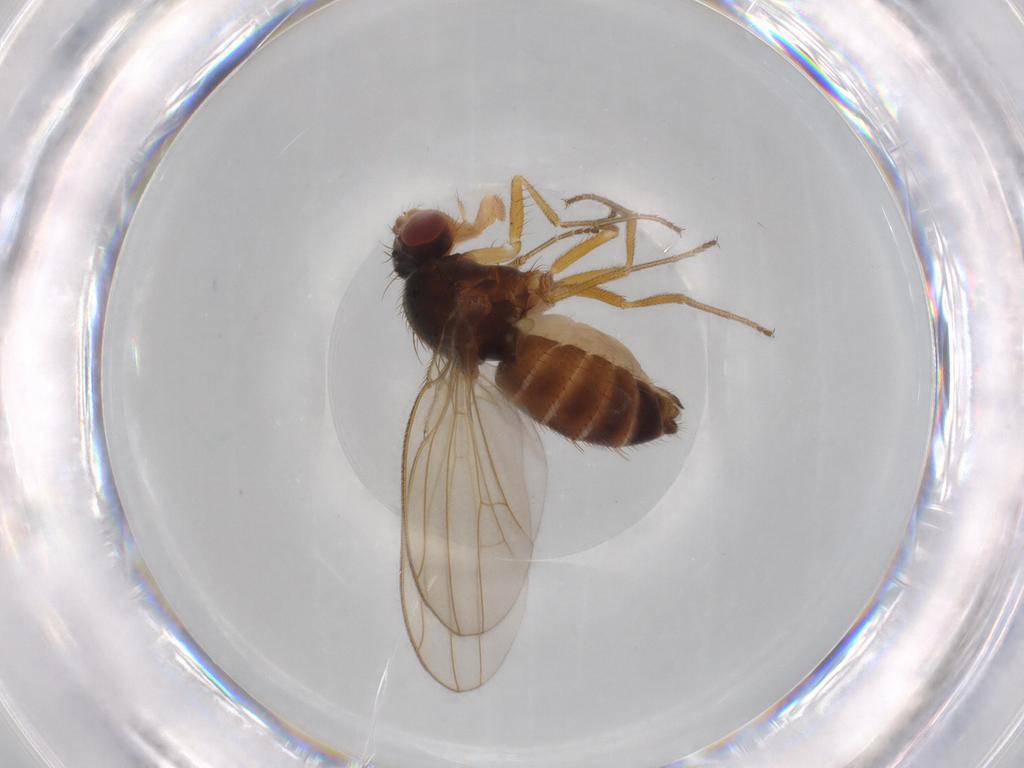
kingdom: Animalia
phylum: Arthropoda
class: Insecta
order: Diptera
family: Drosophilidae
